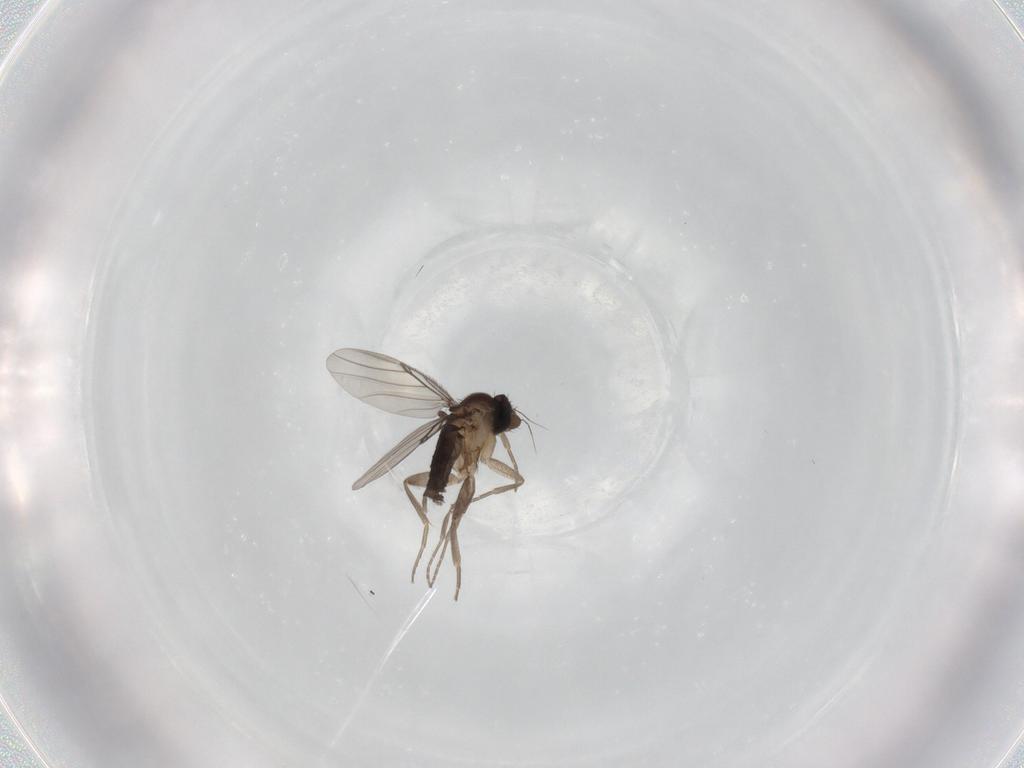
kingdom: Animalia
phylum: Arthropoda
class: Insecta
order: Diptera
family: Phoridae
